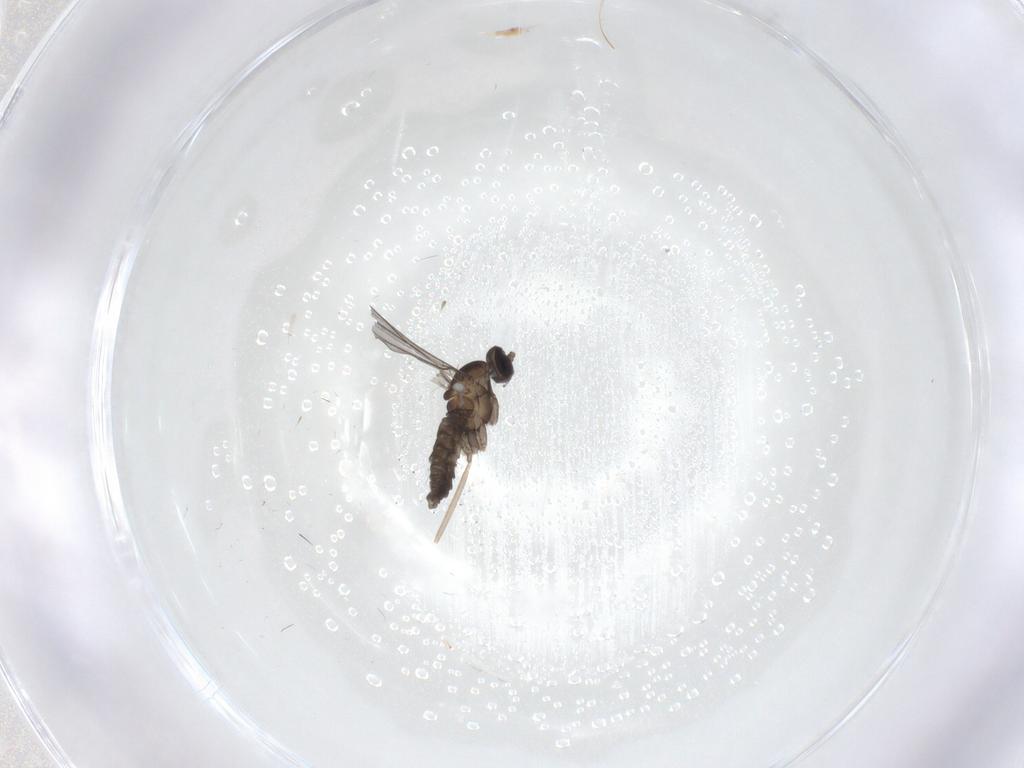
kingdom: Animalia
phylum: Arthropoda
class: Insecta
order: Diptera
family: Cecidomyiidae
